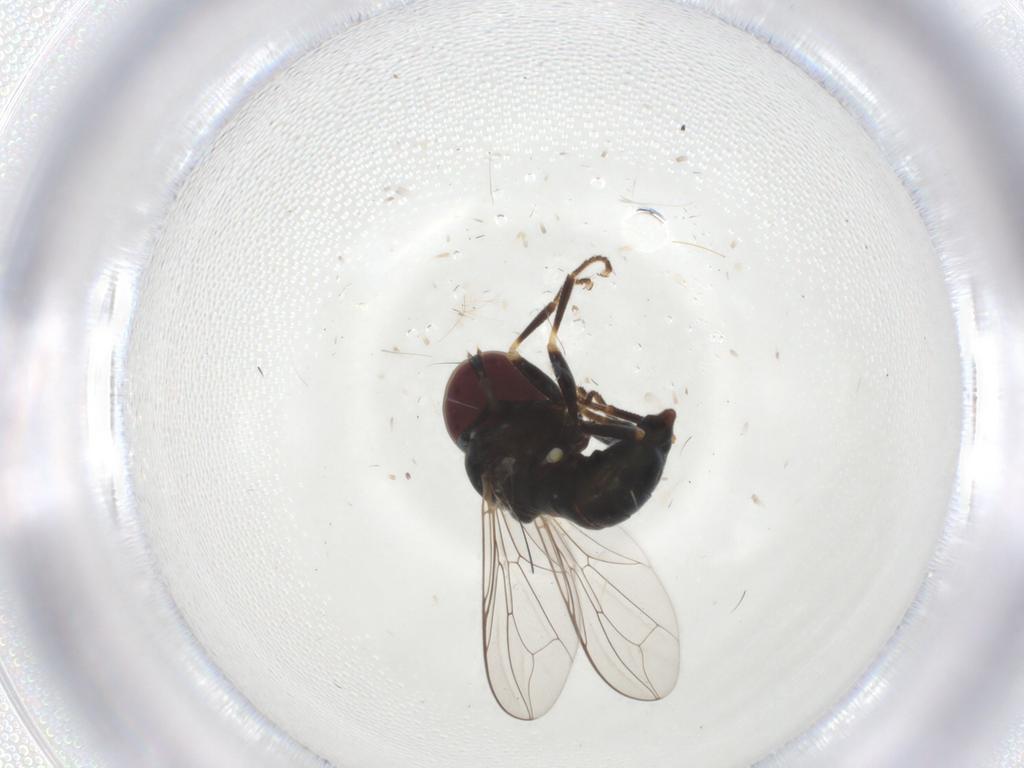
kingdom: Animalia
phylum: Arthropoda
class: Insecta
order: Diptera
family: Pipunculidae
